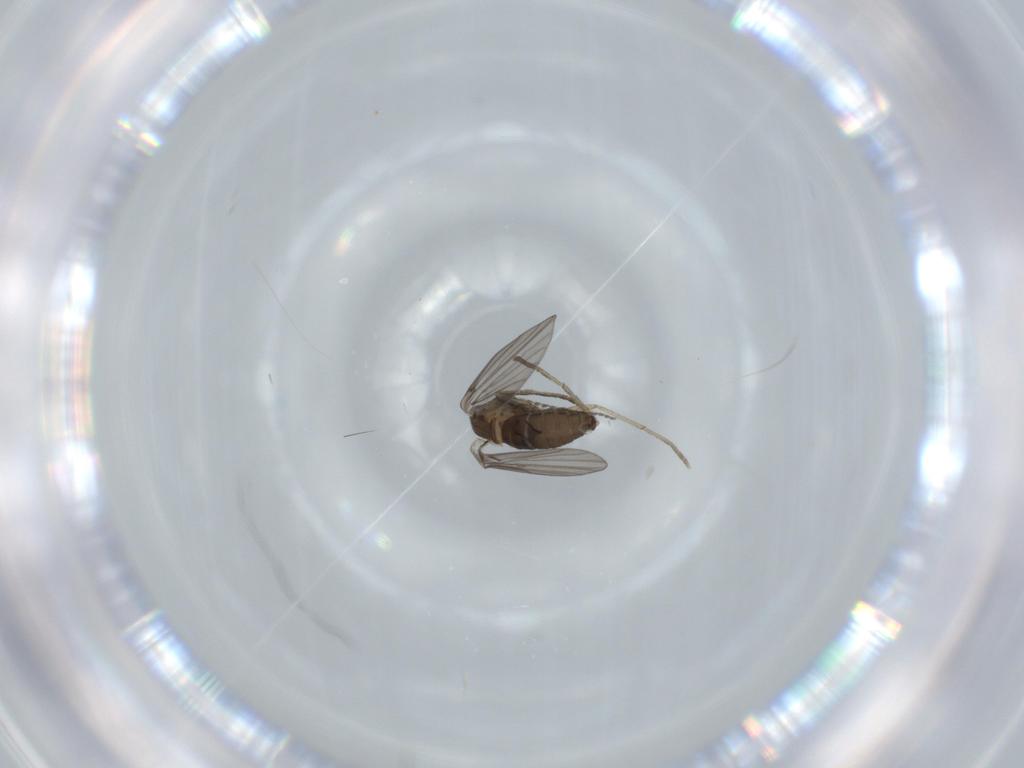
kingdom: Animalia
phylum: Arthropoda
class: Insecta
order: Diptera
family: Psychodidae
